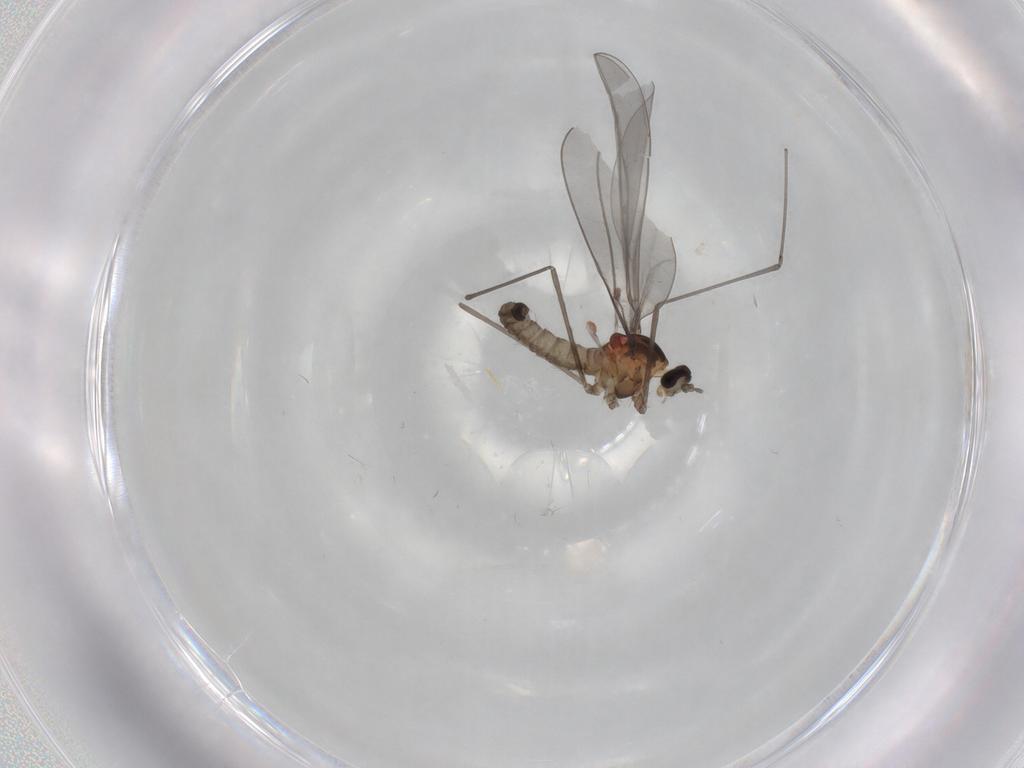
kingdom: Animalia
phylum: Arthropoda
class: Insecta
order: Diptera
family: Cecidomyiidae
